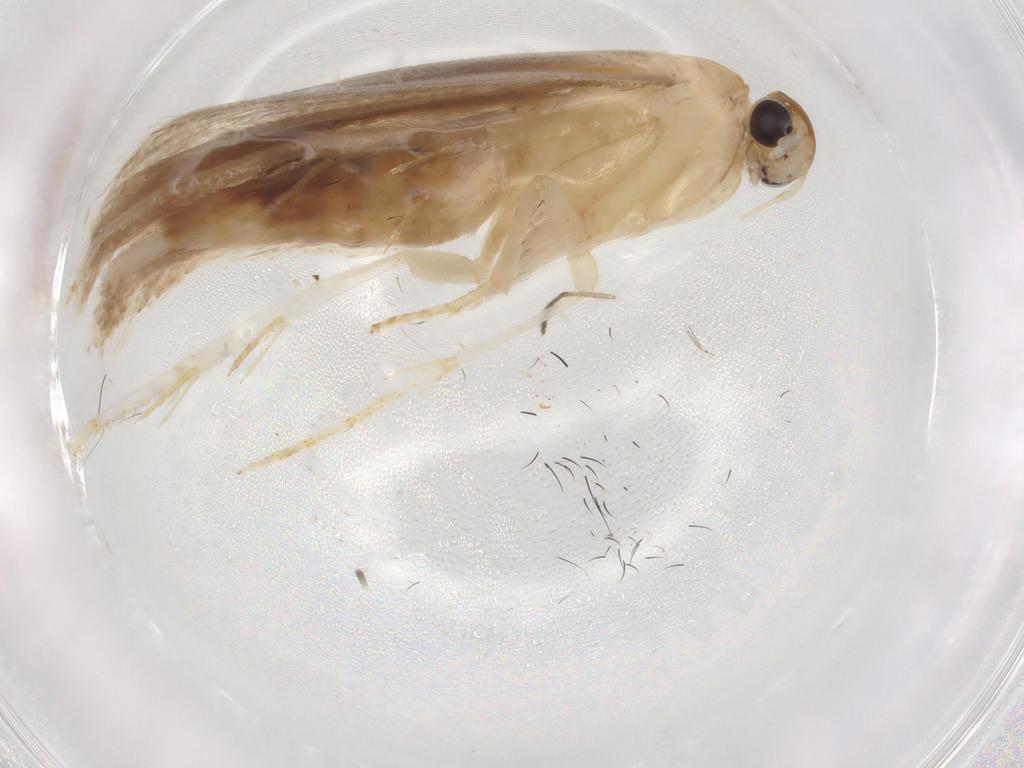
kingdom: Animalia
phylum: Arthropoda
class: Insecta
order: Lepidoptera
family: Gelechiidae
